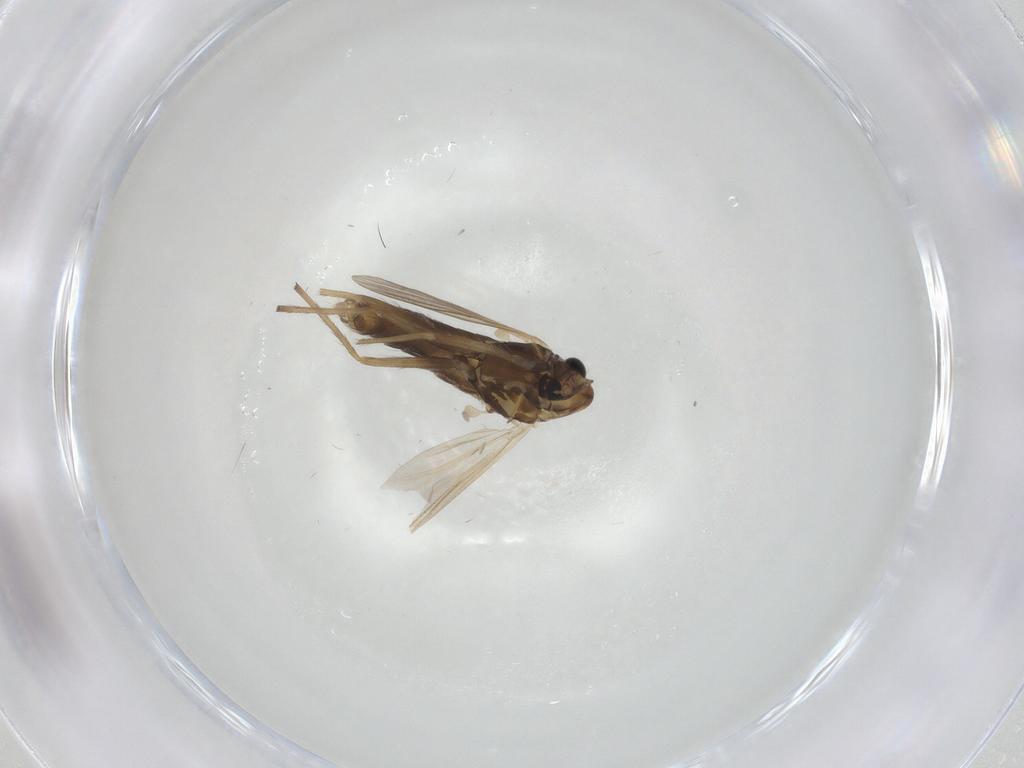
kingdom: Animalia
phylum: Arthropoda
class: Insecta
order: Diptera
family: Chironomidae
